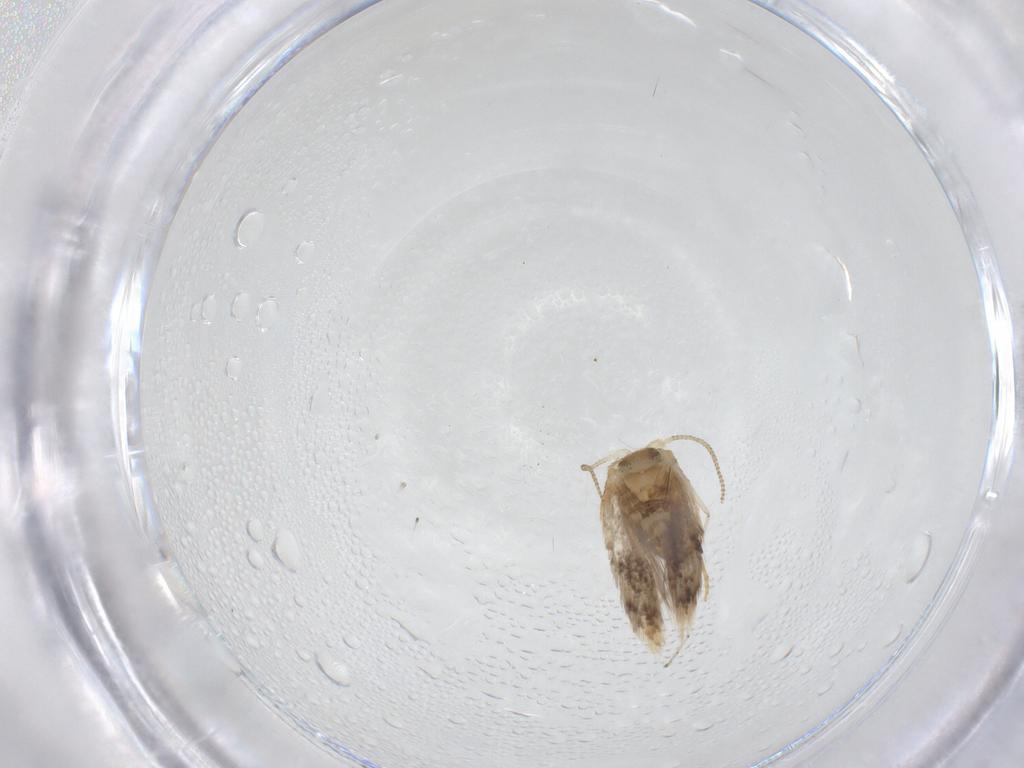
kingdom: Animalia
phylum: Arthropoda
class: Insecta
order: Lepidoptera
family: Nepticulidae
